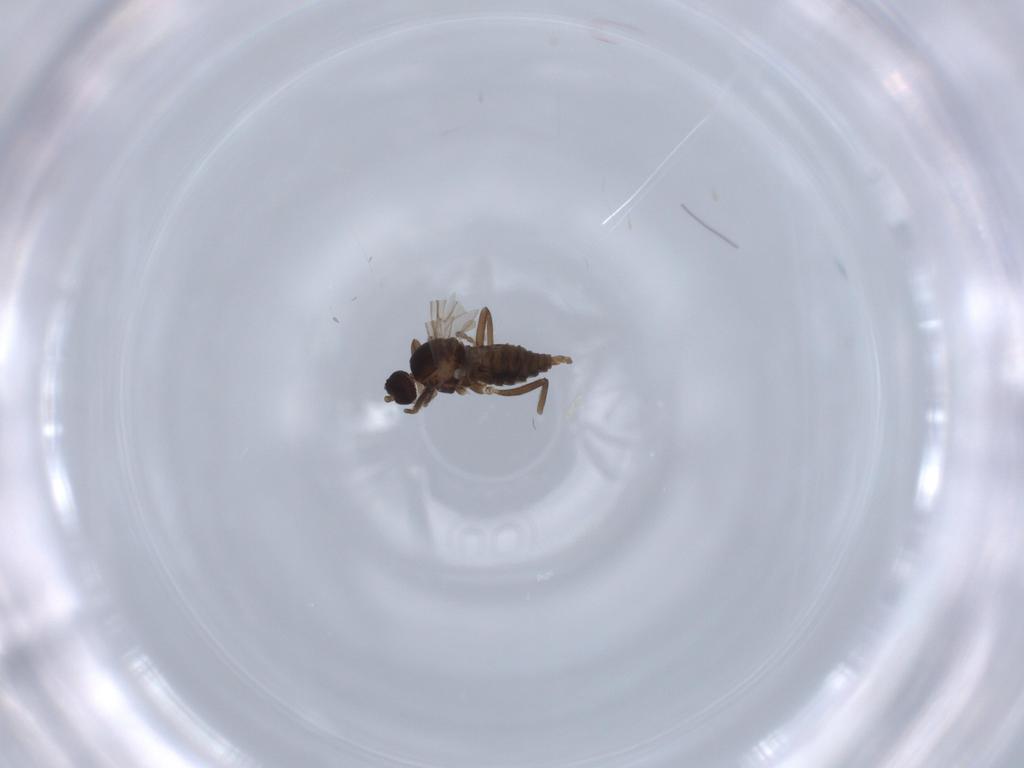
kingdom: Animalia
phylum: Arthropoda
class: Insecta
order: Diptera
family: Cecidomyiidae
